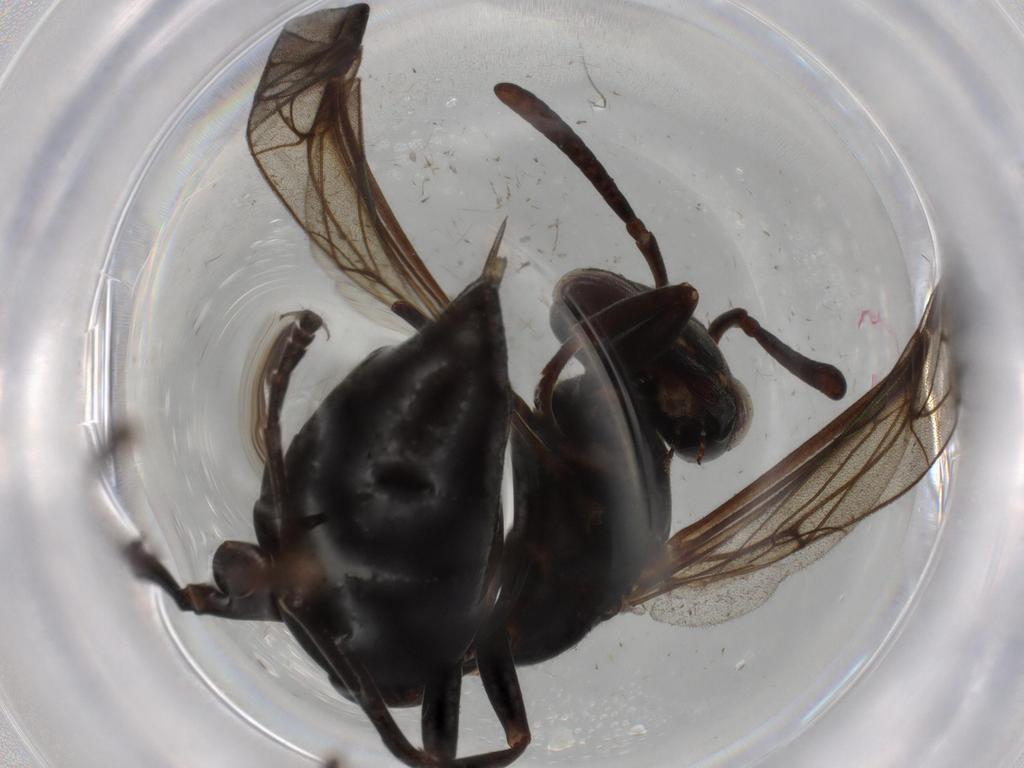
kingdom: Animalia
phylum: Arthropoda
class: Insecta
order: Hymenoptera
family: Vespidae
